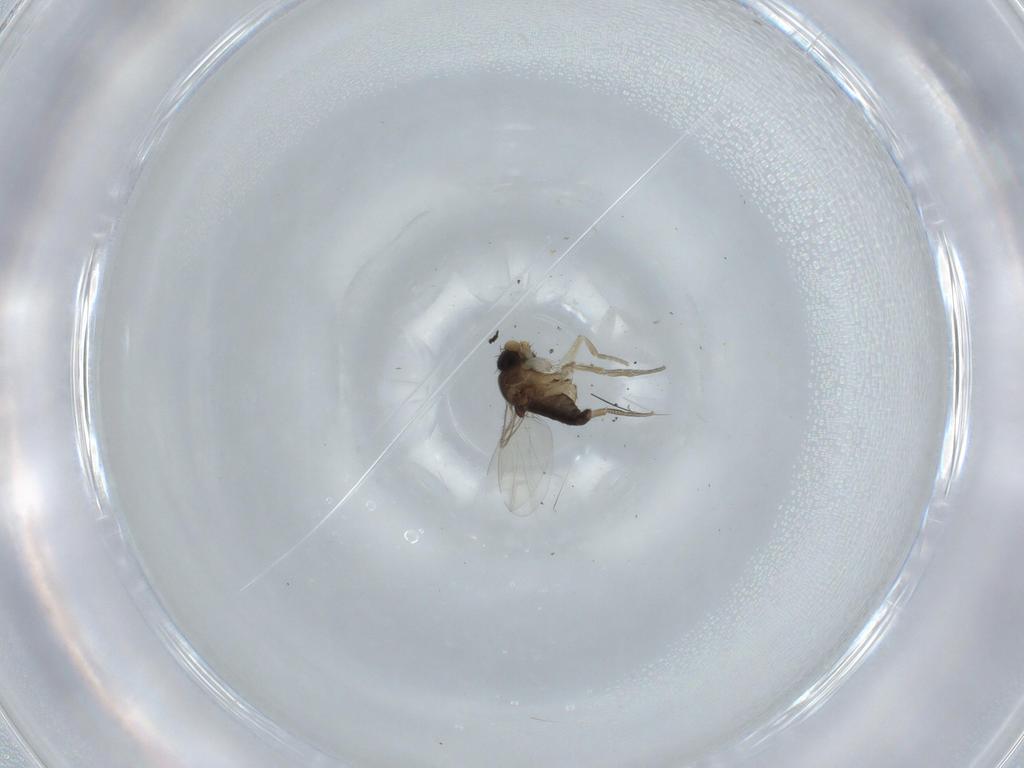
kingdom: Animalia
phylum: Arthropoda
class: Insecta
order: Diptera
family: Phoridae
